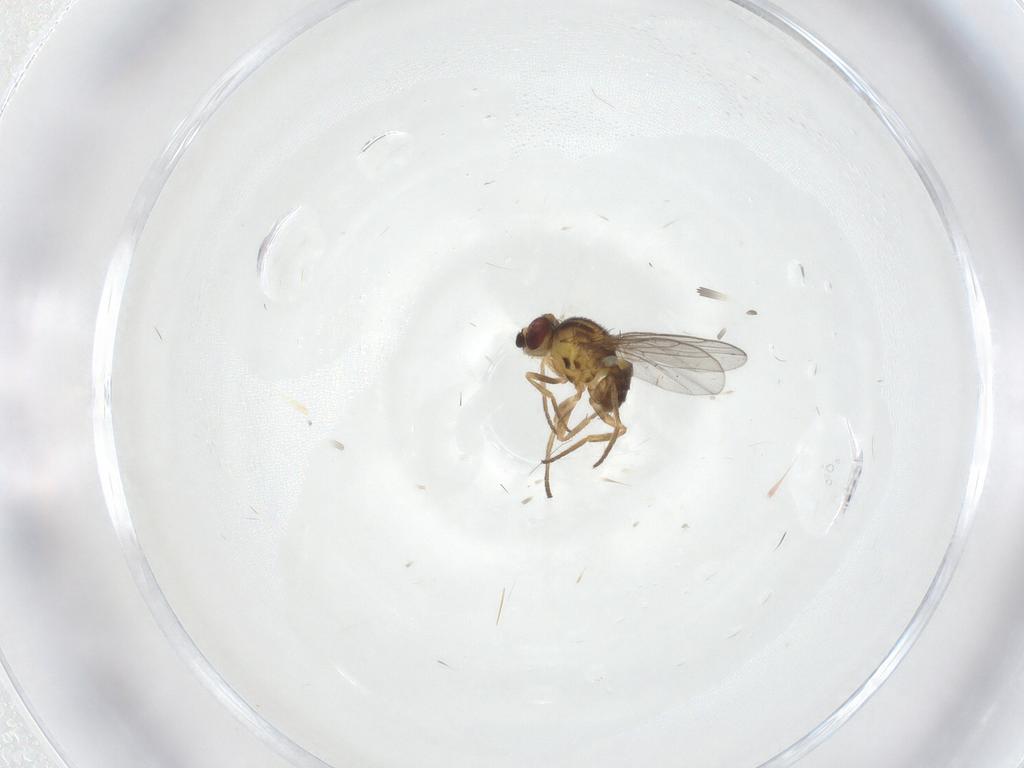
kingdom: Animalia
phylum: Arthropoda
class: Insecta
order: Diptera
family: Chloropidae
